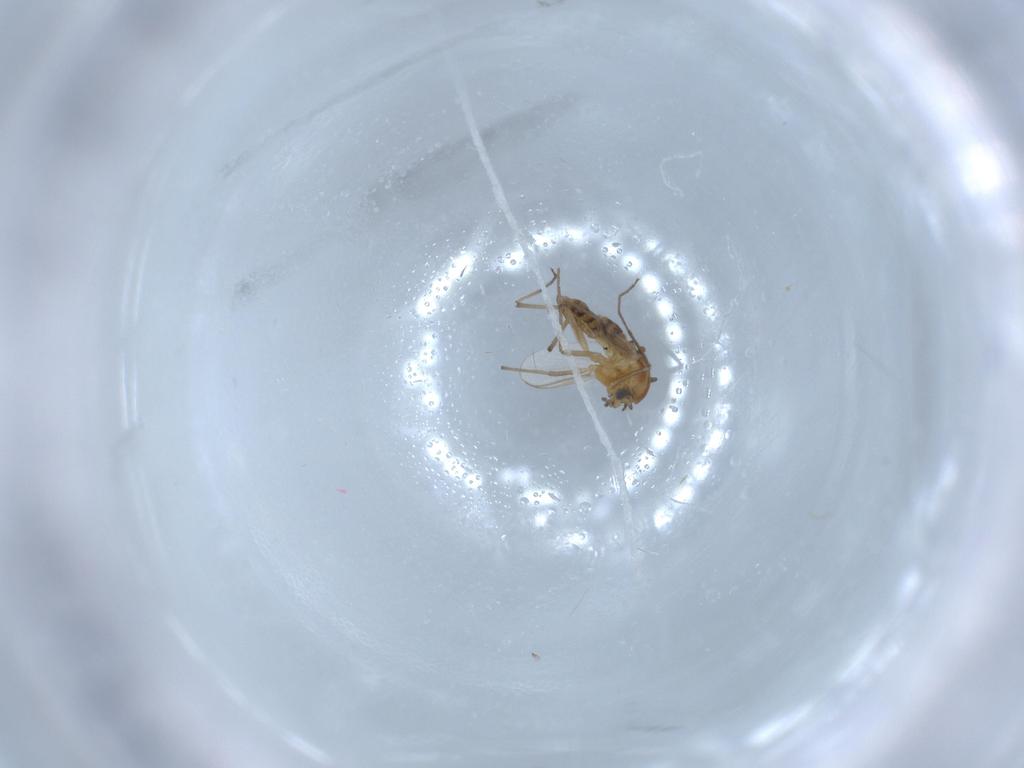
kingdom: Animalia
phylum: Arthropoda
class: Insecta
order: Diptera
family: Chironomidae
